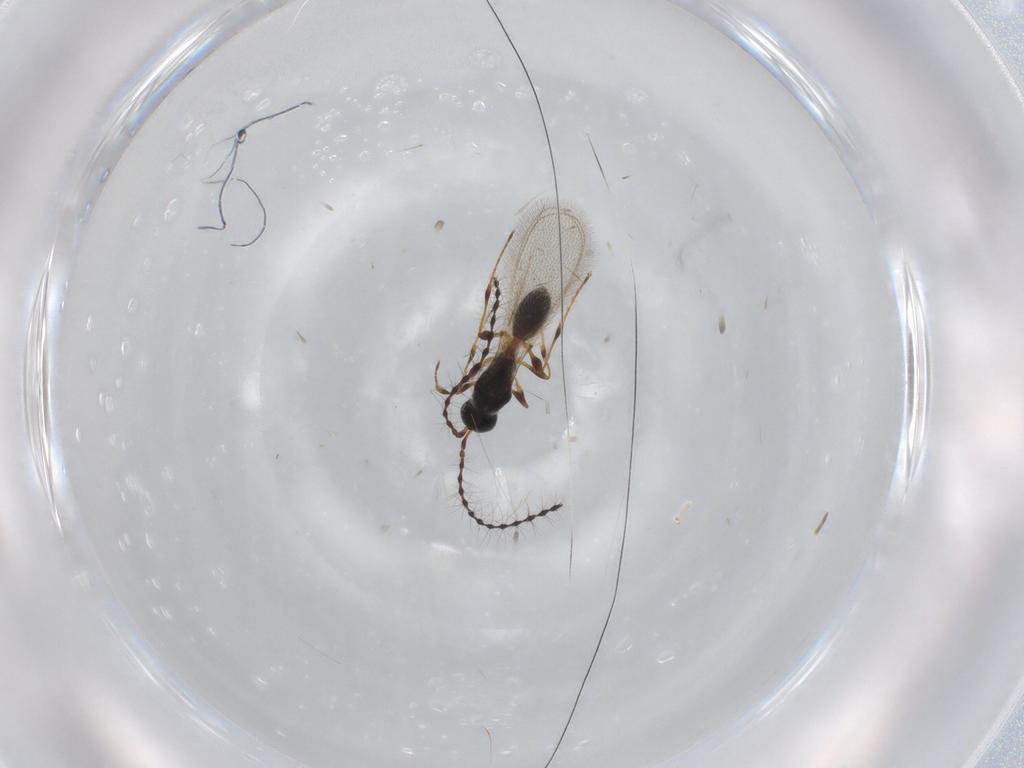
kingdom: Animalia
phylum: Arthropoda
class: Insecta
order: Hymenoptera
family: Diapriidae
